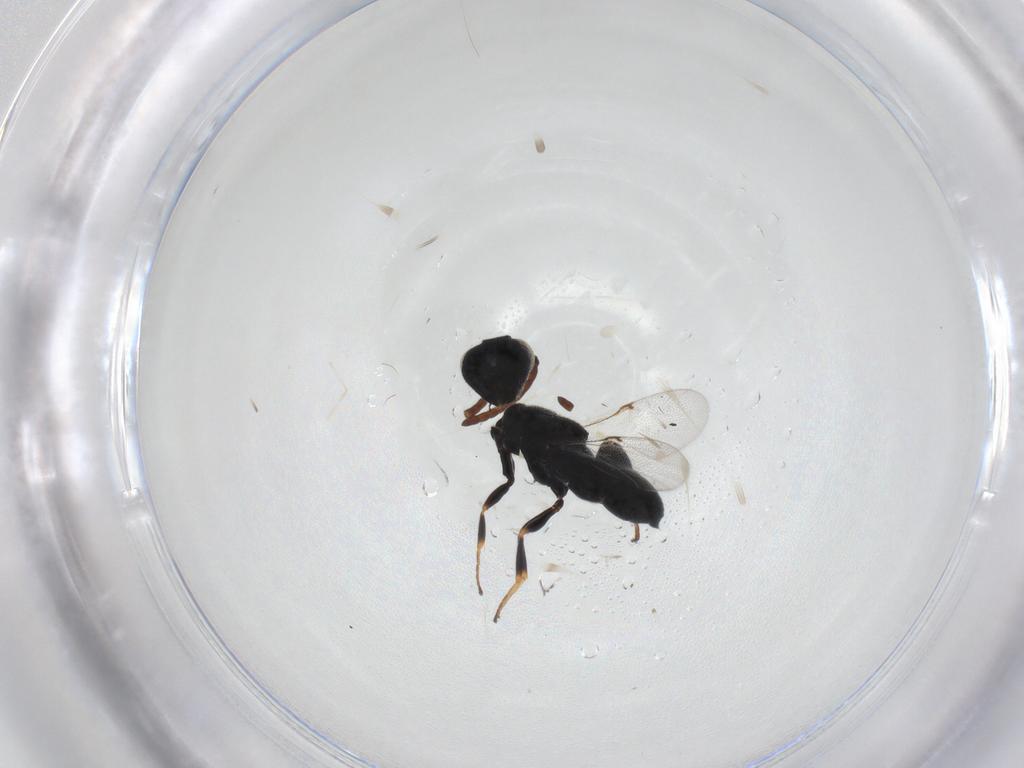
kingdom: Animalia
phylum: Arthropoda
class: Insecta
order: Hymenoptera
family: Chalcididae
